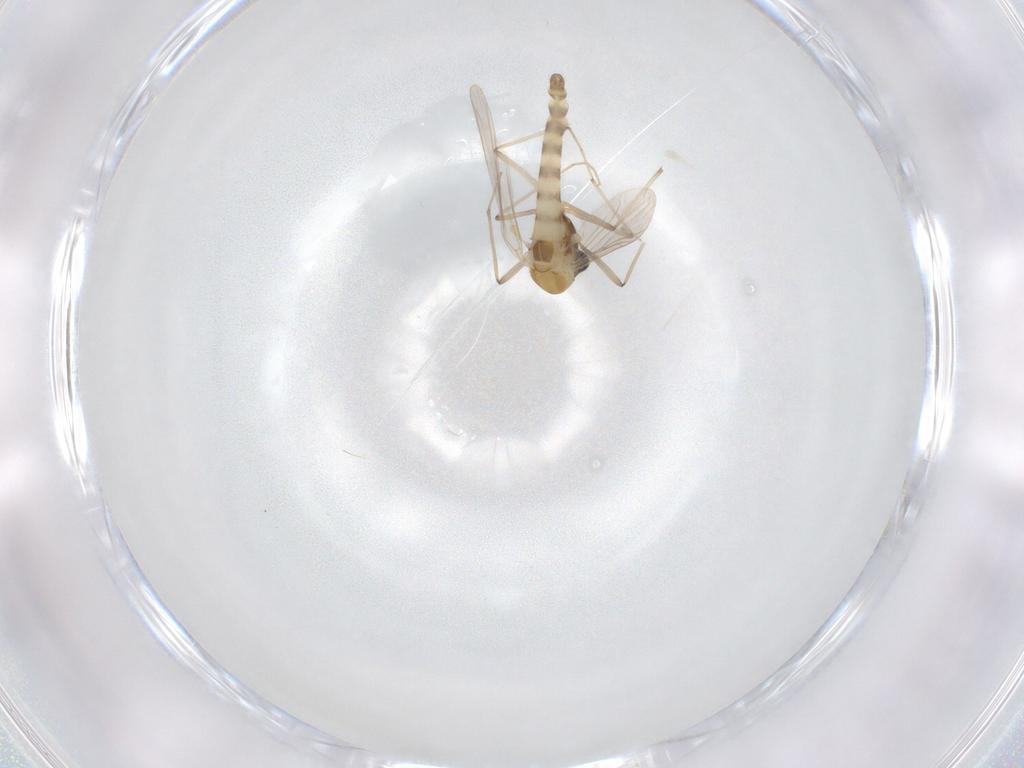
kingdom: Animalia
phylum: Arthropoda
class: Insecta
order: Diptera
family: Chironomidae
